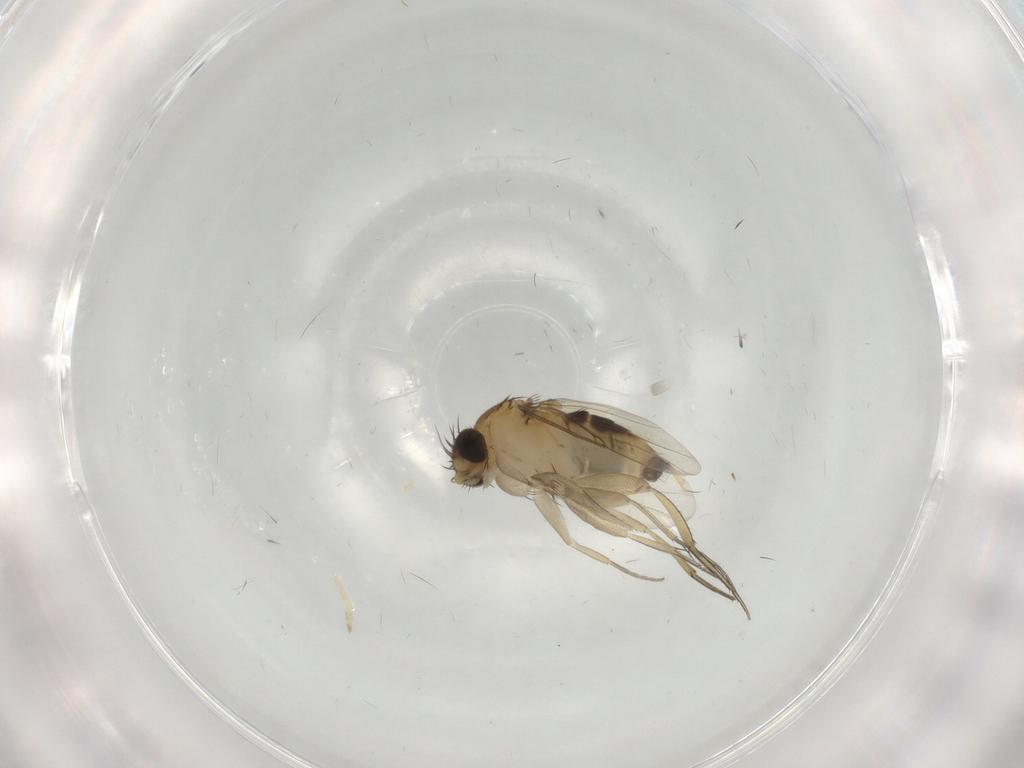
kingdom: Animalia
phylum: Arthropoda
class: Insecta
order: Diptera
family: Phoridae
